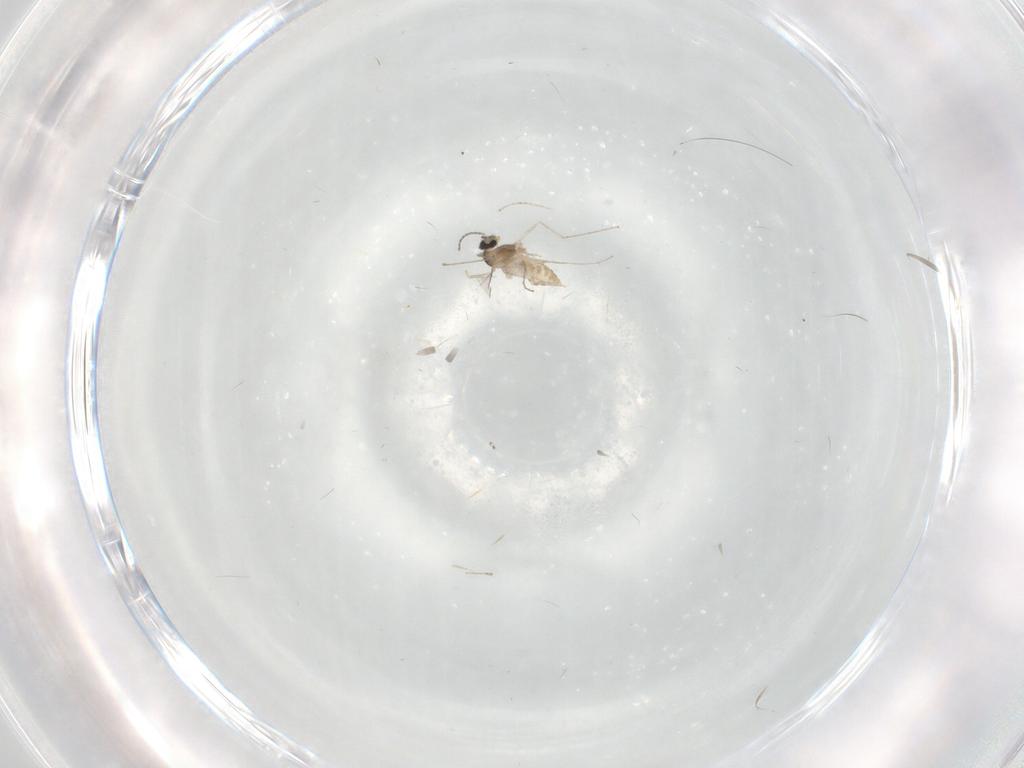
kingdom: Animalia
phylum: Arthropoda
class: Insecta
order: Diptera
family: Cecidomyiidae
